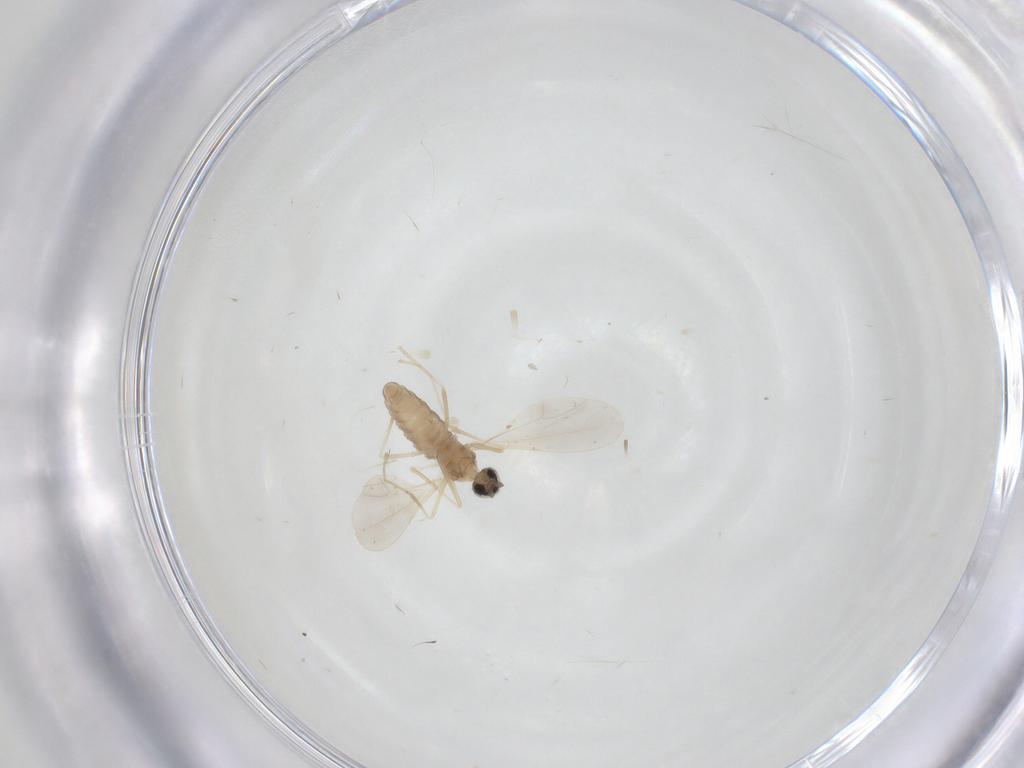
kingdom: Animalia
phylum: Arthropoda
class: Insecta
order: Diptera
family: Cecidomyiidae
